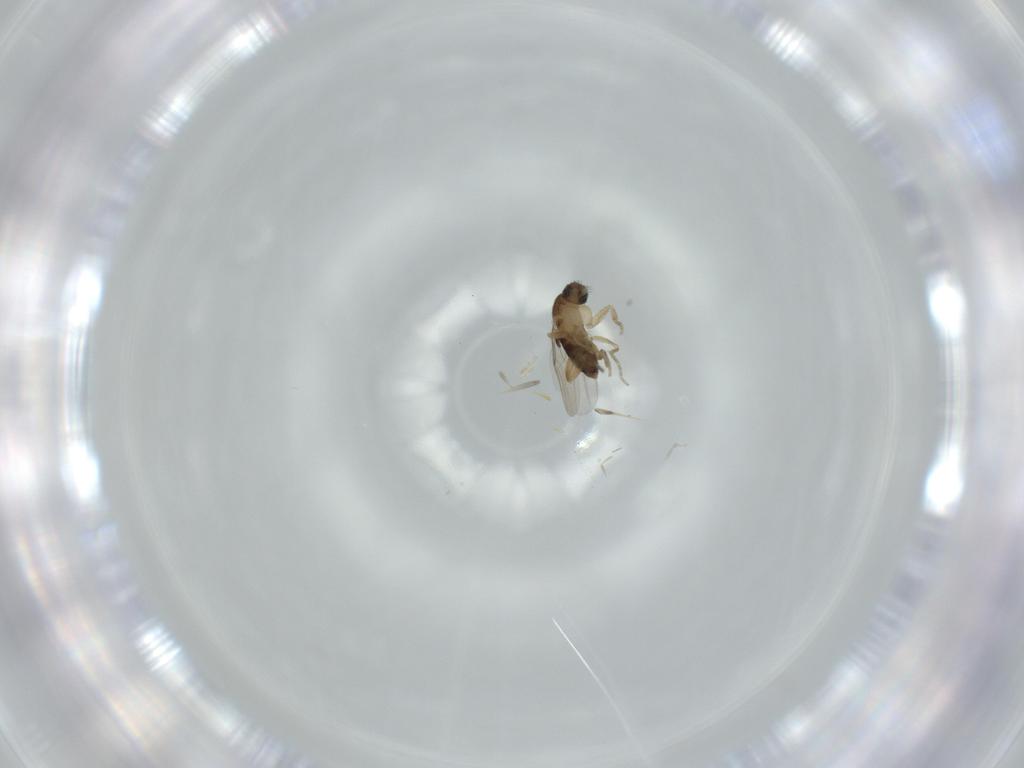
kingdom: Animalia
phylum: Arthropoda
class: Insecta
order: Diptera
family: Phoridae
